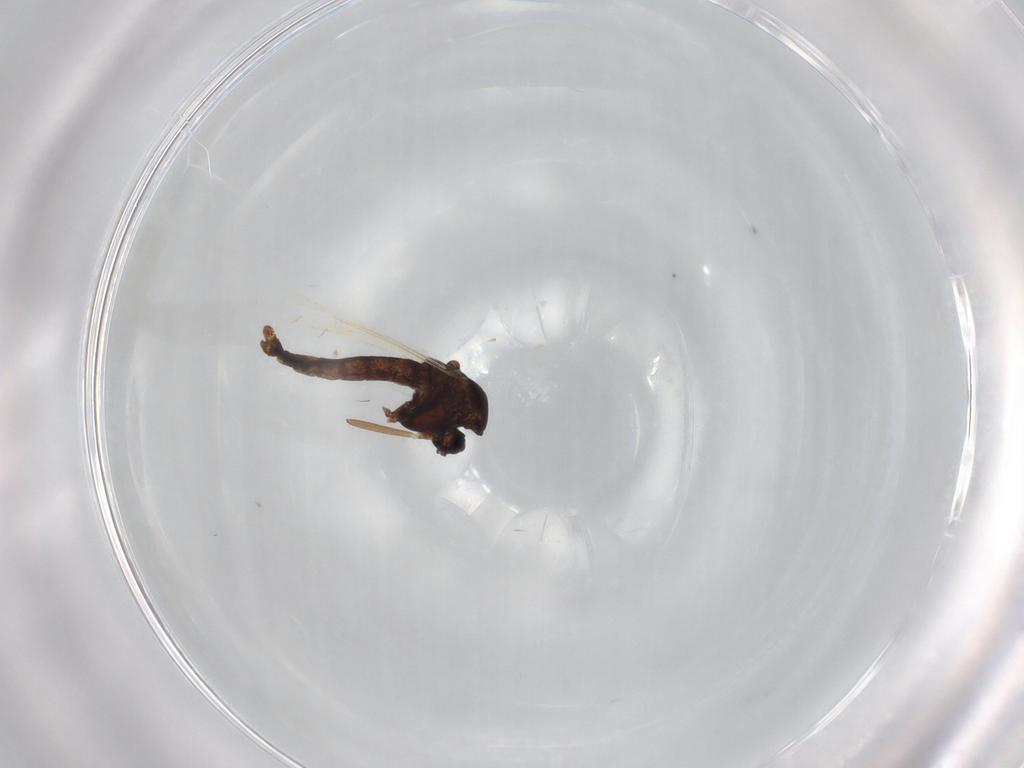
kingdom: Animalia
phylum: Arthropoda
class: Insecta
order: Diptera
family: Chironomidae
